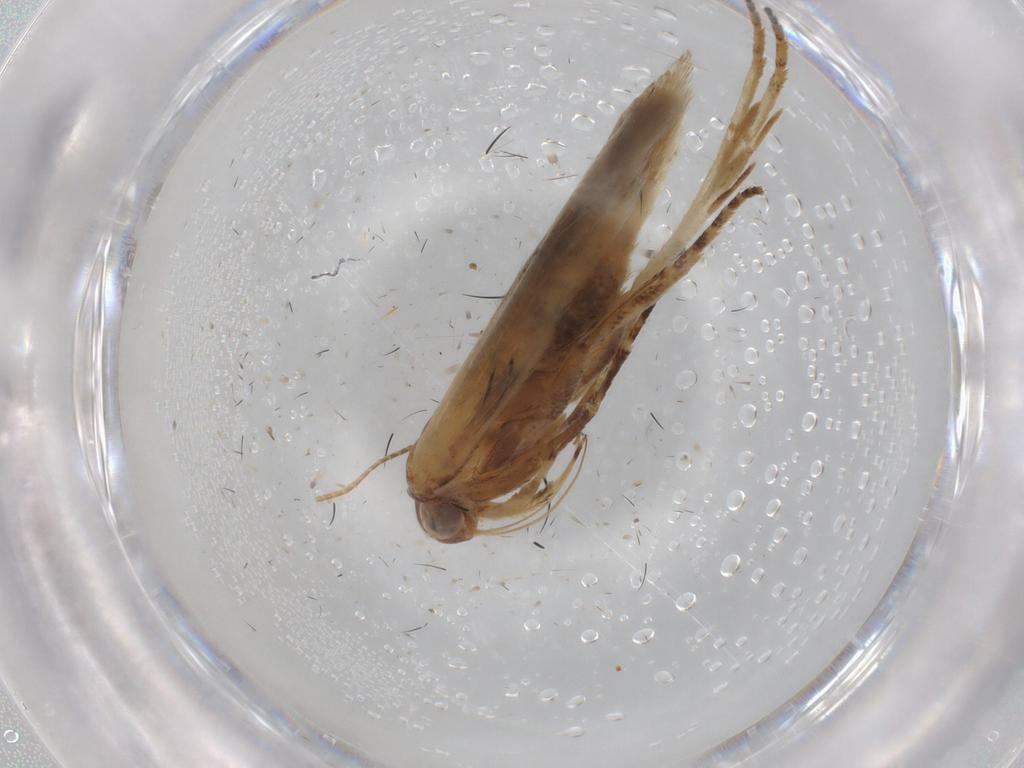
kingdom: Animalia
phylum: Arthropoda
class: Insecta
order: Lepidoptera
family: Gelechiidae
